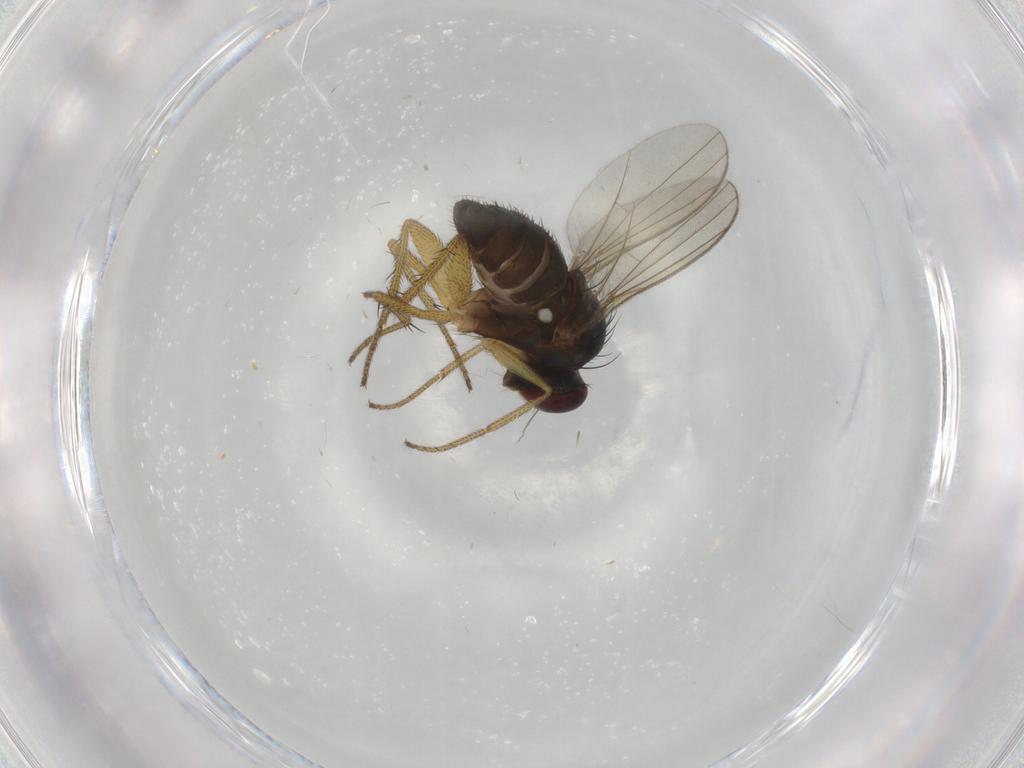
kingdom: Animalia
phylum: Arthropoda
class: Insecta
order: Diptera
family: Dolichopodidae
